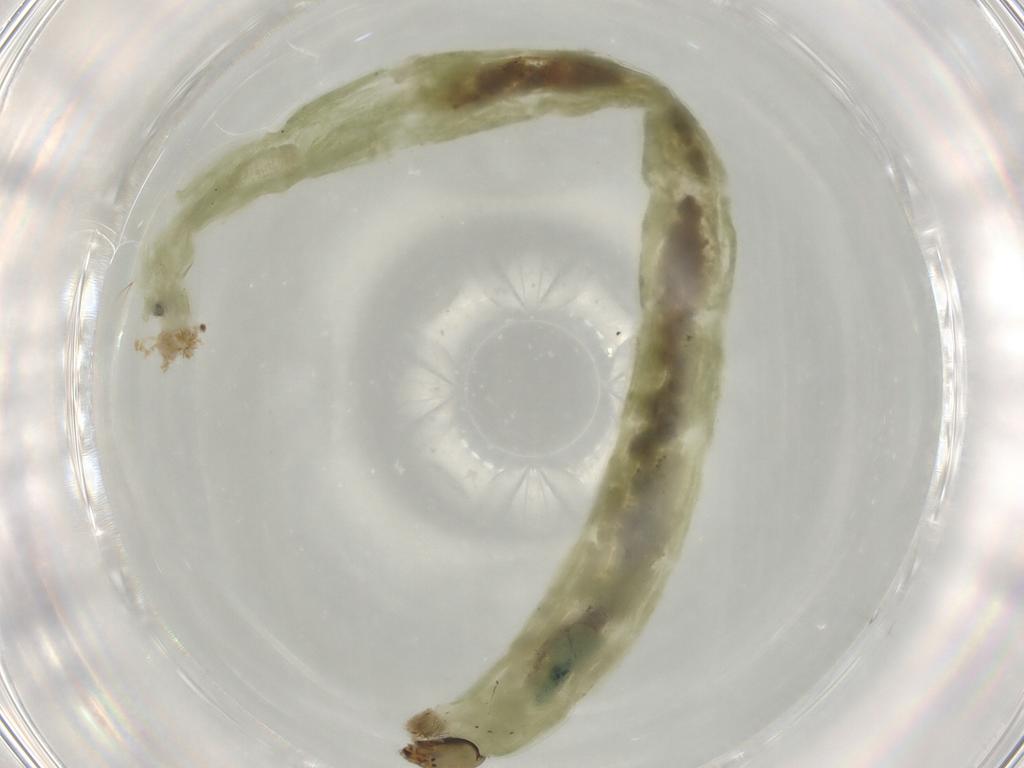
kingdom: Animalia
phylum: Arthropoda
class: Insecta
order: Diptera
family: Chironomidae
